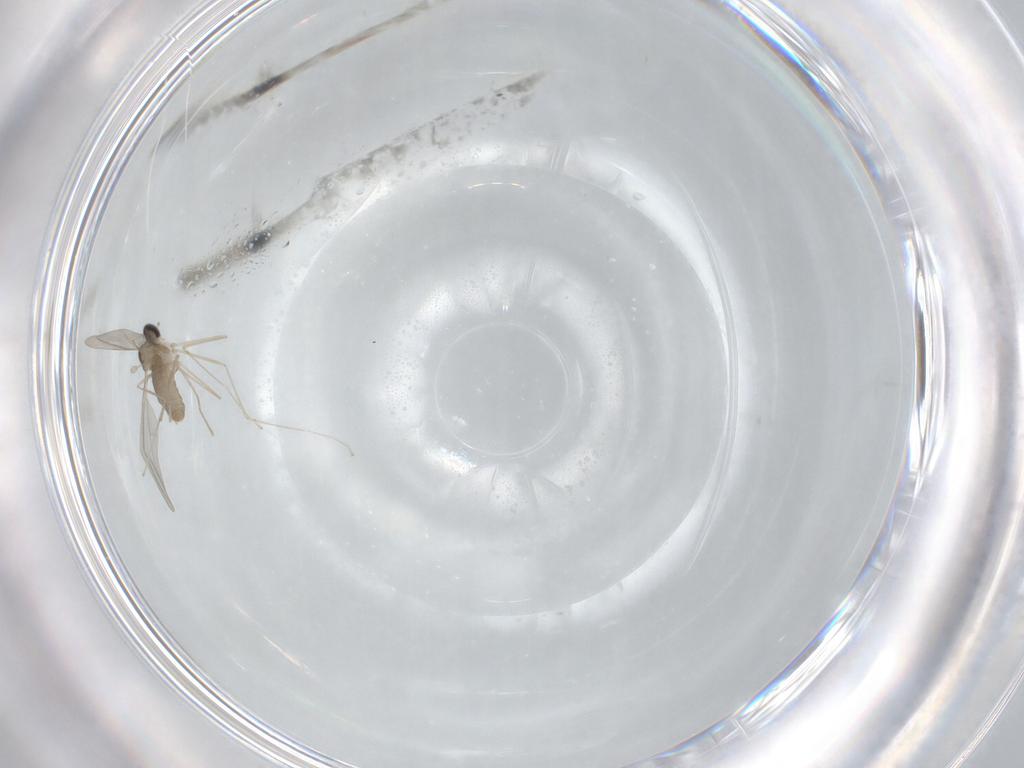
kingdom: Animalia
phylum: Arthropoda
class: Insecta
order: Diptera
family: Cecidomyiidae
